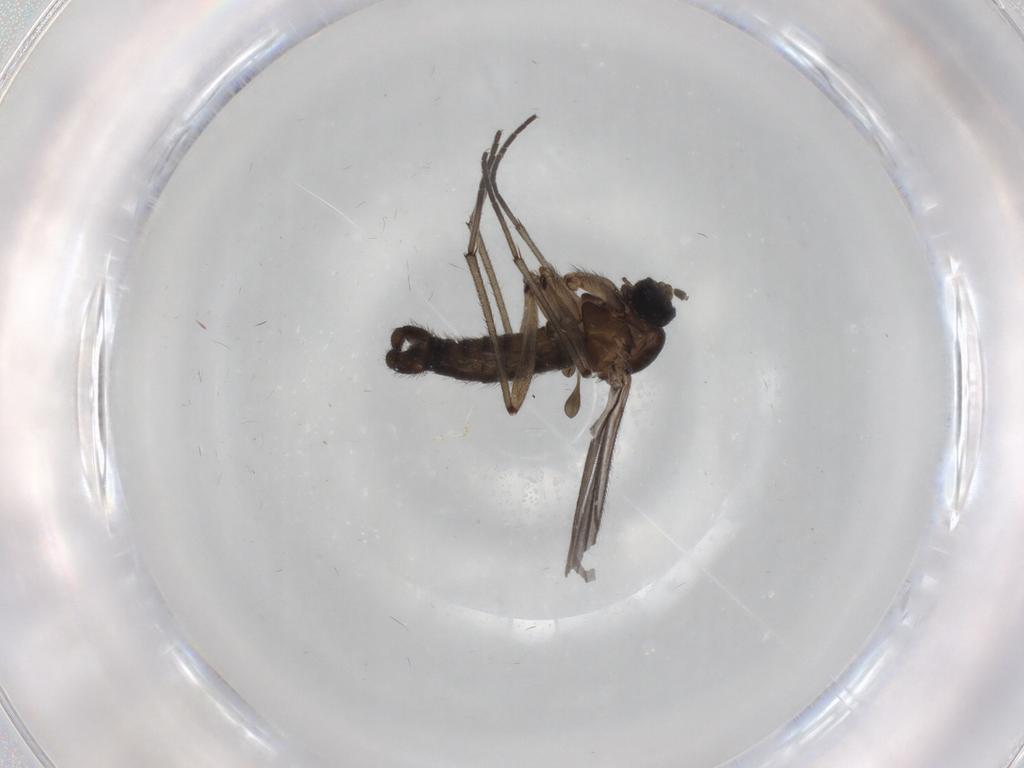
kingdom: Animalia
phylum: Arthropoda
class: Insecta
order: Diptera
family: Sciaridae
